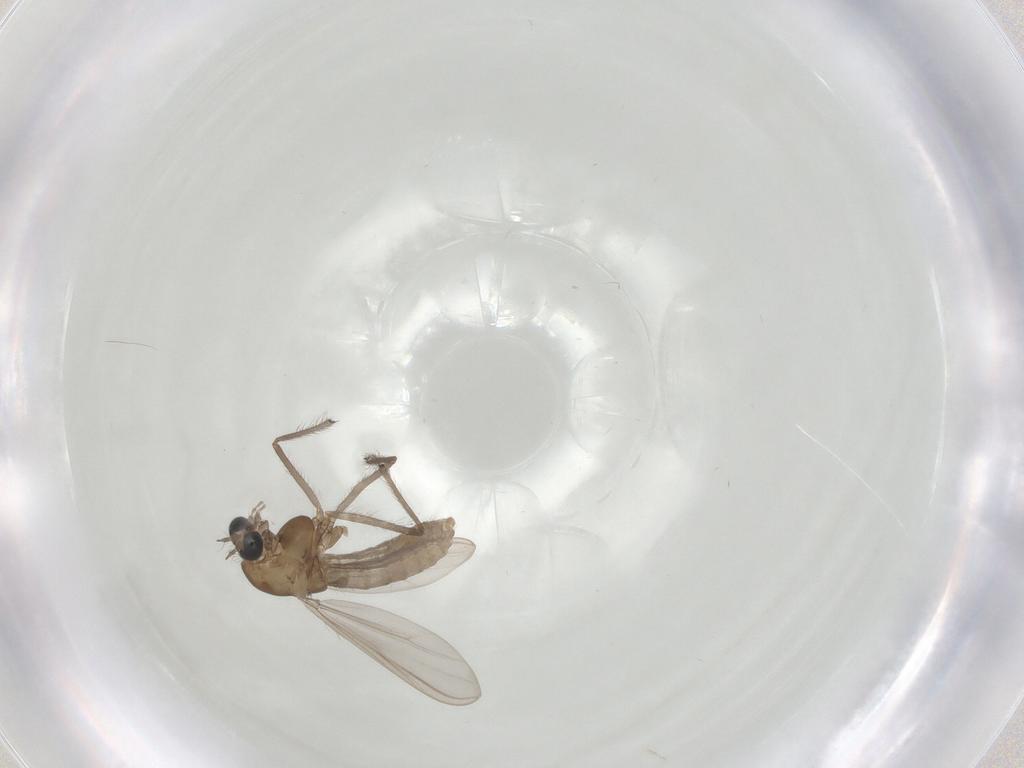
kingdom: Animalia
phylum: Arthropoda
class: Insecta
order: Diptera
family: Chironomidae
